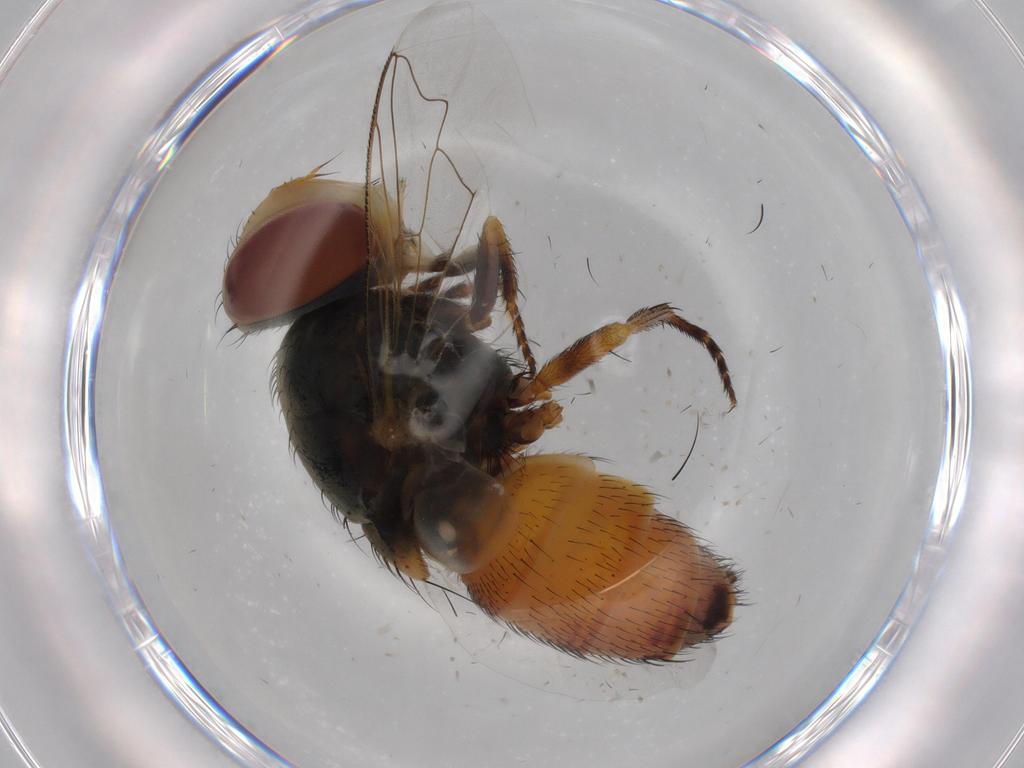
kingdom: Animalia
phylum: Arthropoda
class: Insecta
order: Diptera
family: Sarcophagidae
